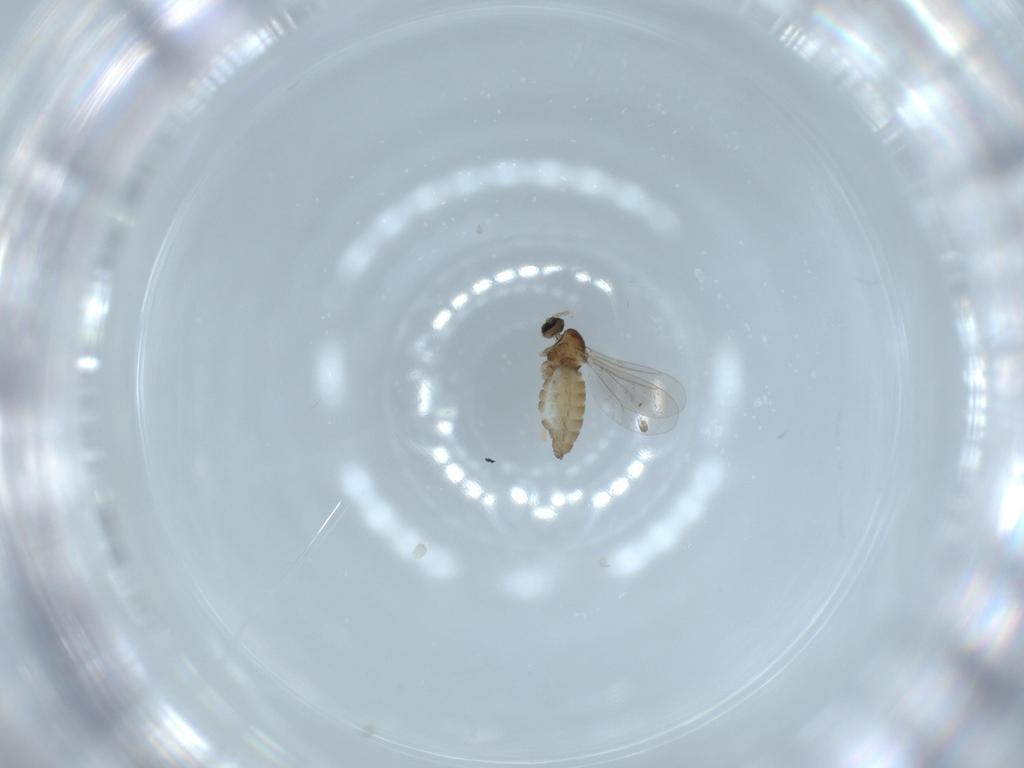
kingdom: Animalia
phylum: Arthropoda
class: Insecta
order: Diptera
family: Cecidomyiidae
